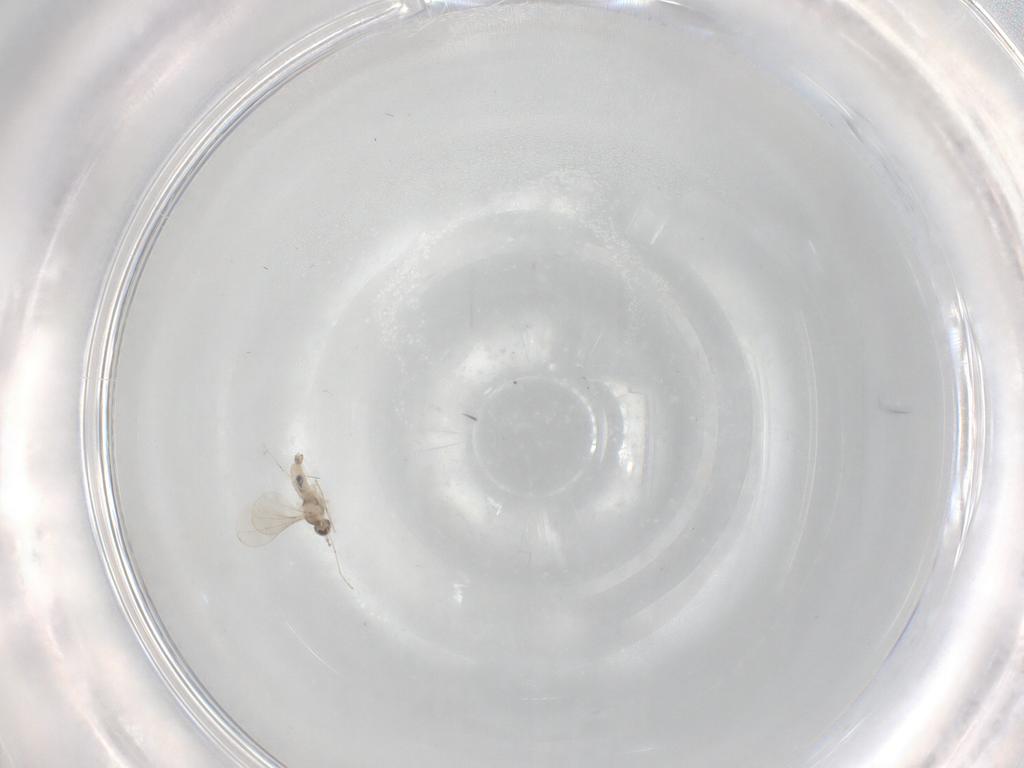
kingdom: Animalia
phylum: Arthropoda
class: Insecta
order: Diptera
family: Cecidomyiidae
